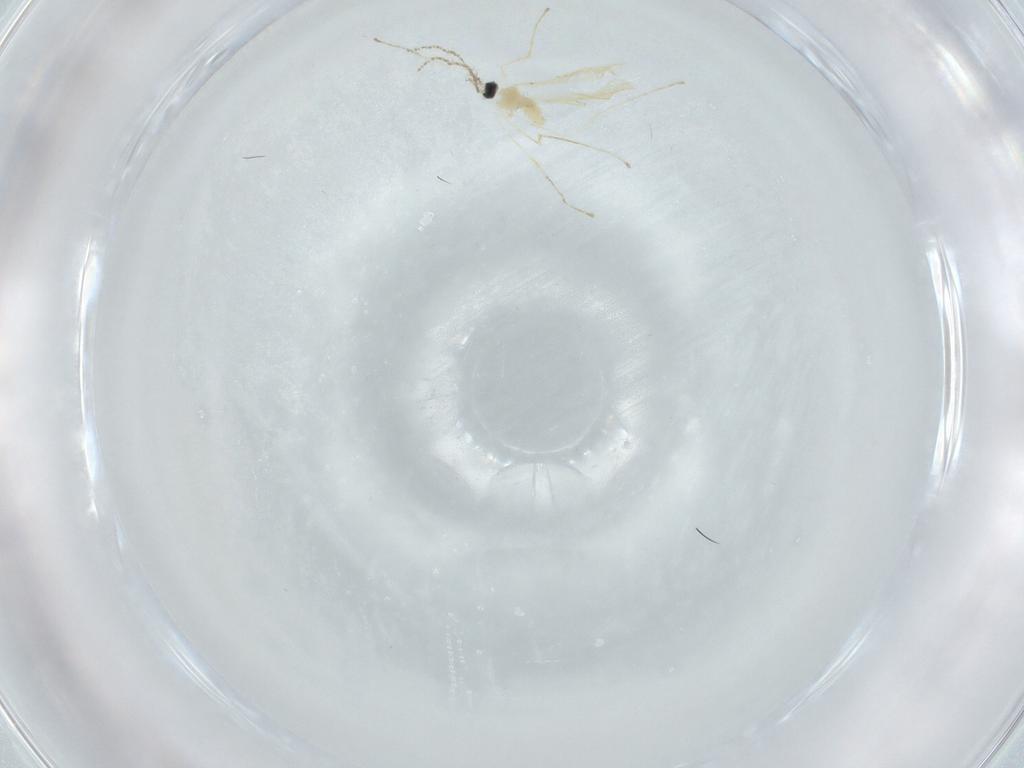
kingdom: Animalia
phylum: Arthropoda
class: Insecta
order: Diptera
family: Cecidomyiidae
